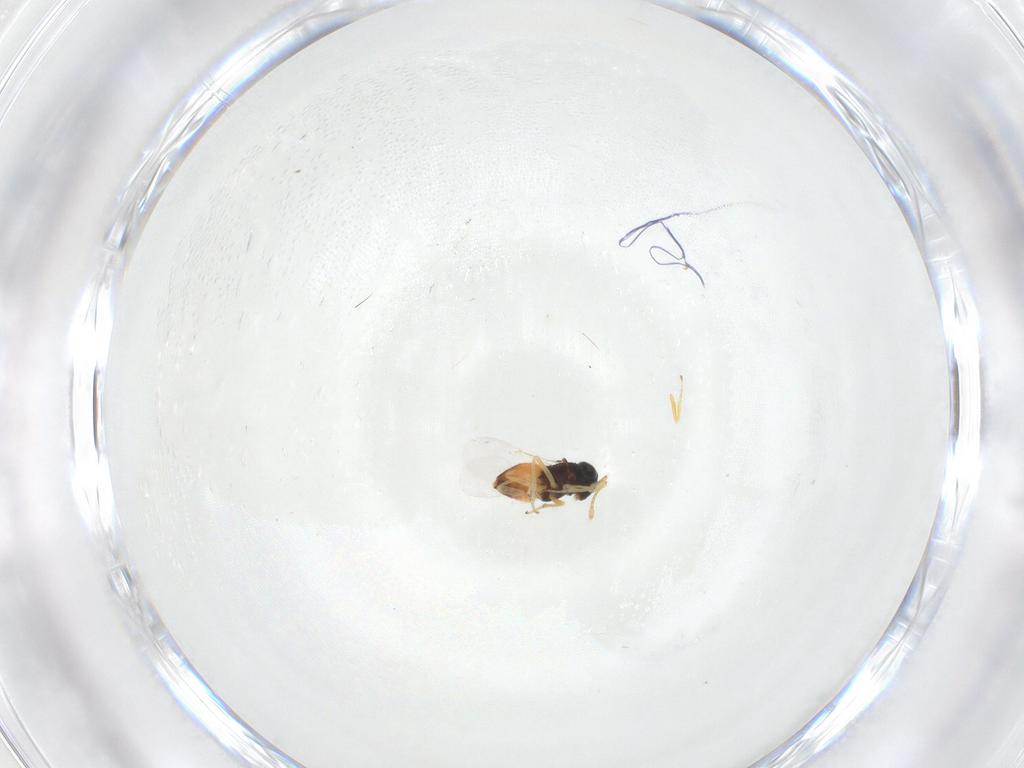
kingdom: Animalia
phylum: Arthropoda
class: Insecta
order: Hymenoptera
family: Encyrtidae
